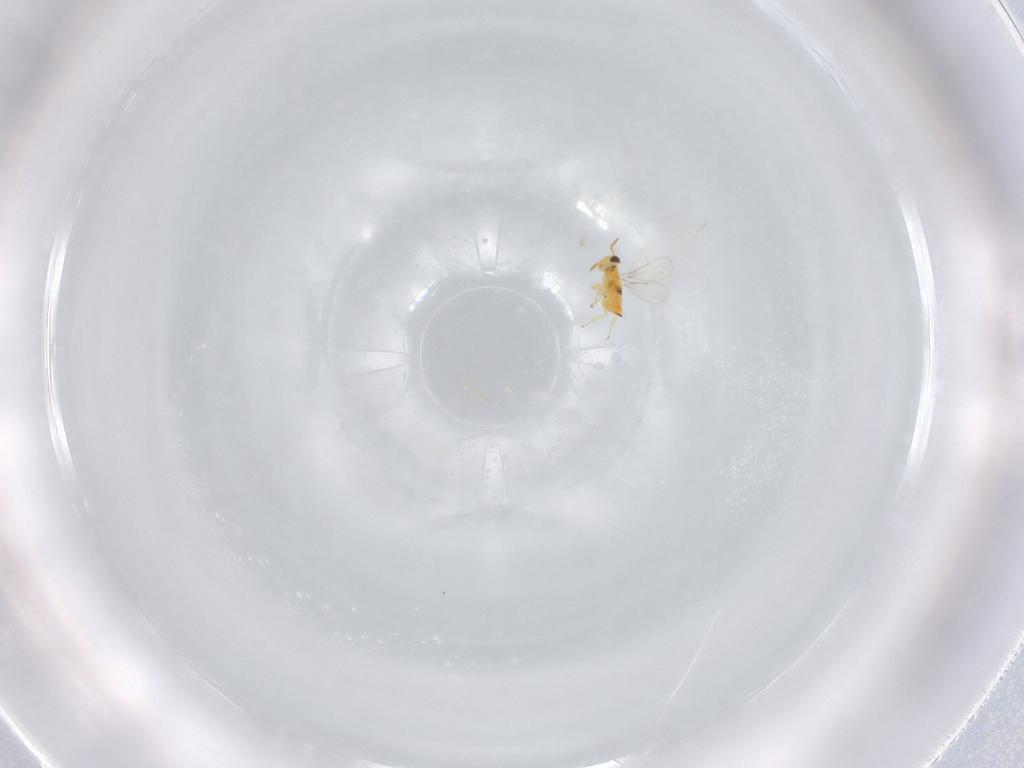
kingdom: Animalia
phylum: Arthropoda
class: Insecta
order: Hymenoptera
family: Aphelinidae
